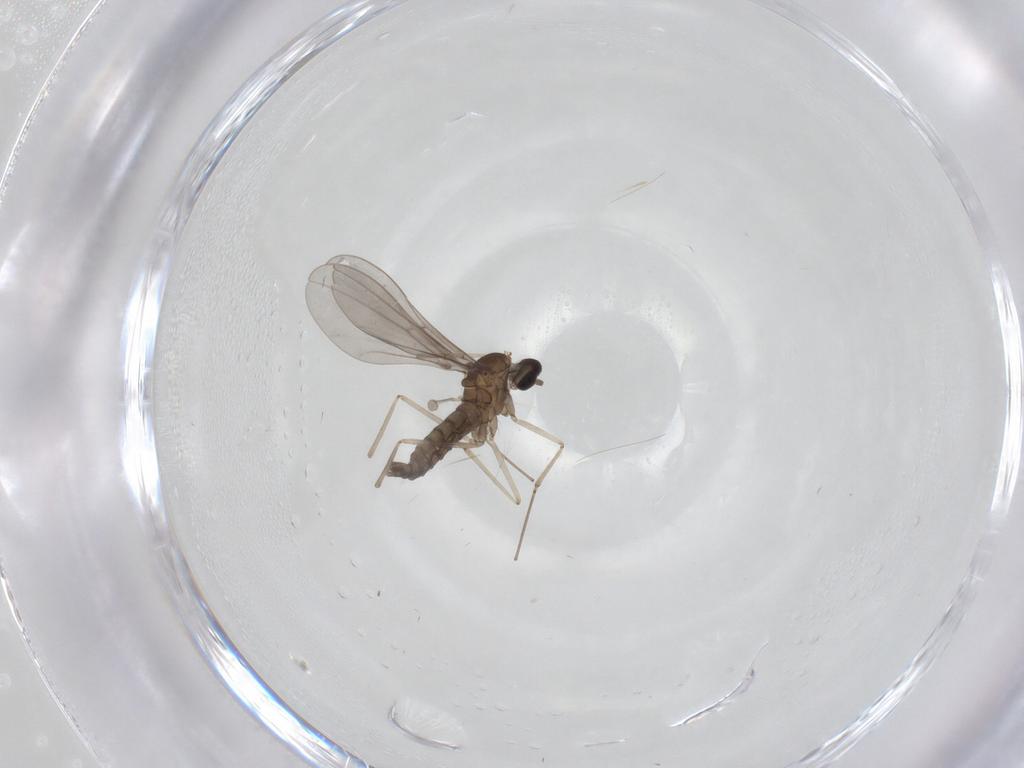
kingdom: Animalia
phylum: Arthropoda
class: Insecta
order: Diptera
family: Cecidomyiidae
